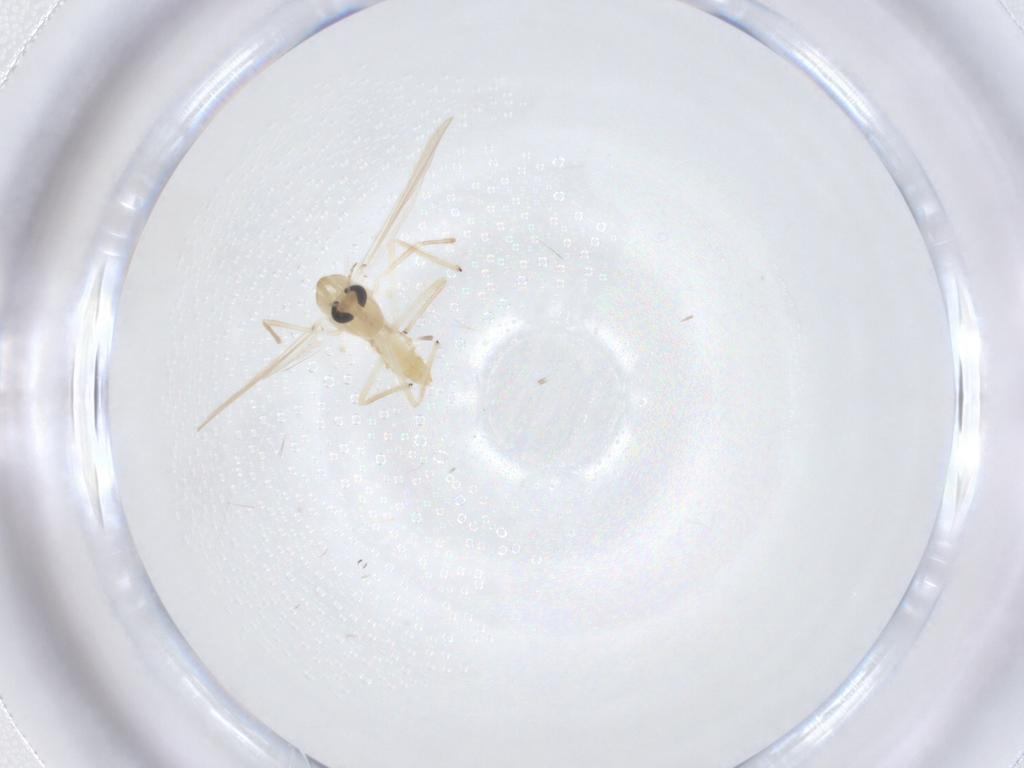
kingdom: Animalia
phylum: Arthropoda
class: Insecta
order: Diptera
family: Chironomidae
